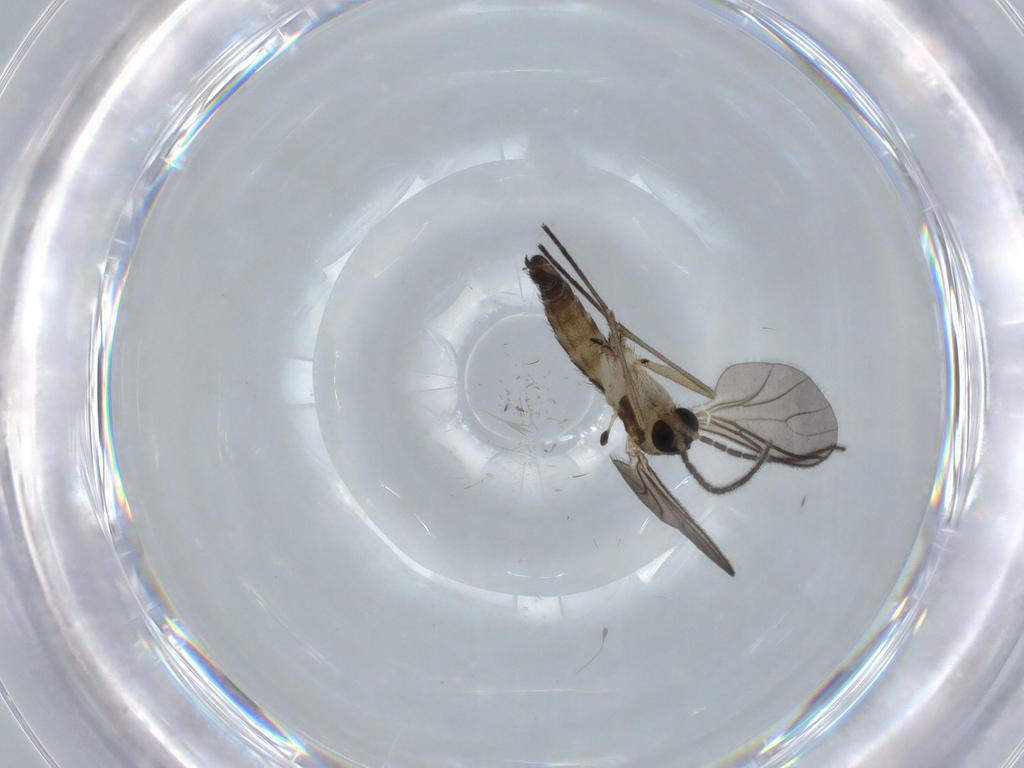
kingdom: Animalia
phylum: Arthropoda
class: Insecta
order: Diptera
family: Sciaridae
